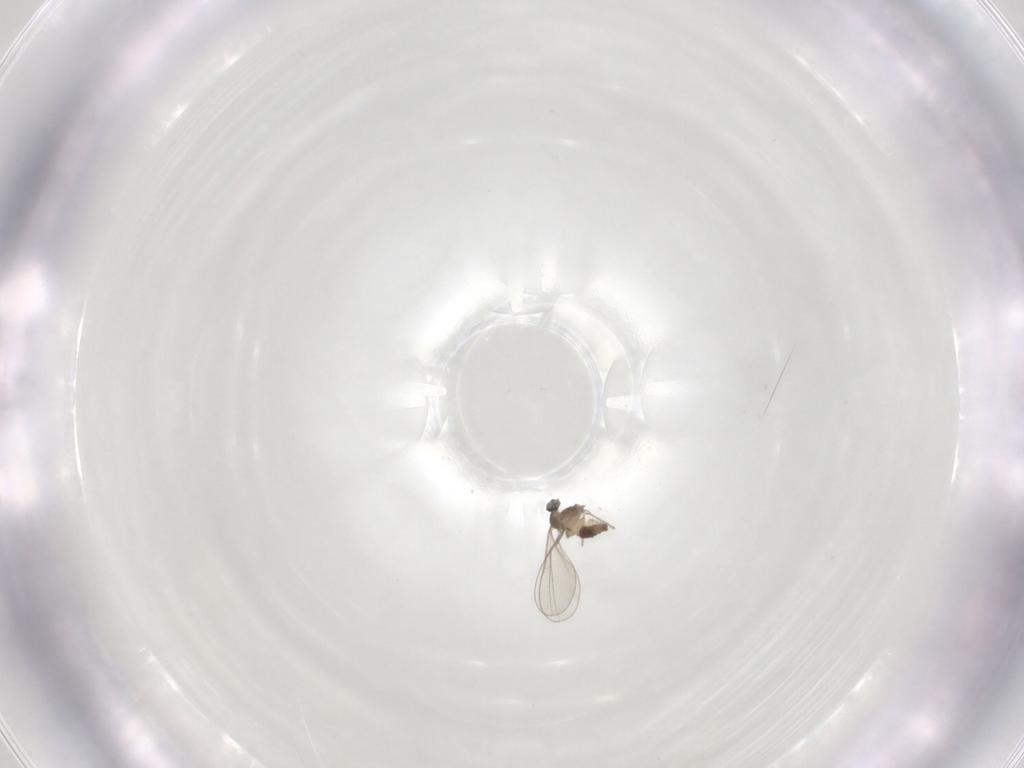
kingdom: Animalia
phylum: Arthropoda
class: Insecta
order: Diptera
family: Cecidomyiidae
